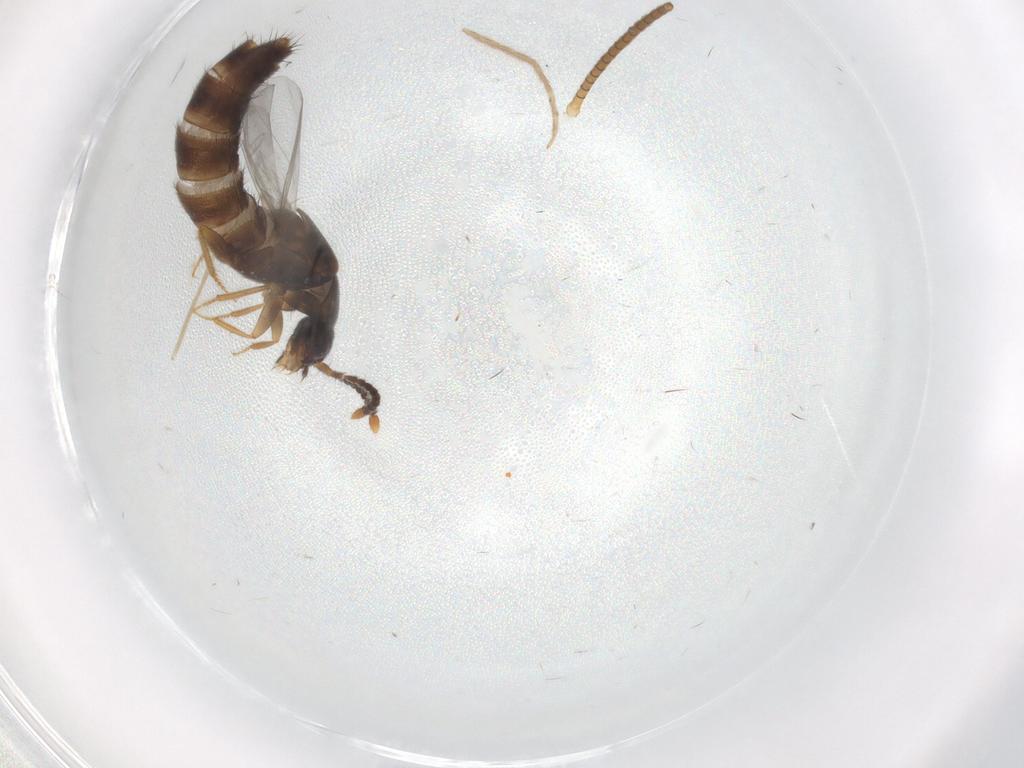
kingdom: Animalia
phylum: Arthropoda
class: Insecta
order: Coleoptera
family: Staphylinidae
